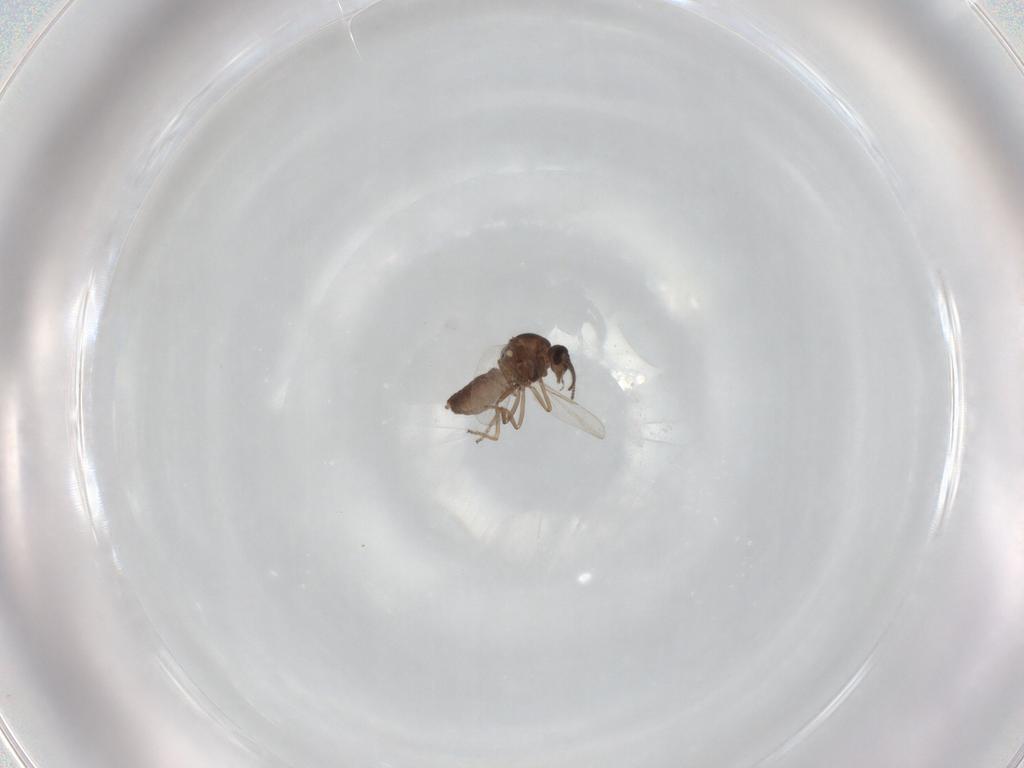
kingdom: Animalia
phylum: Arthropoda
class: Insecta
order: Diptera
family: Ceratopogonidae
